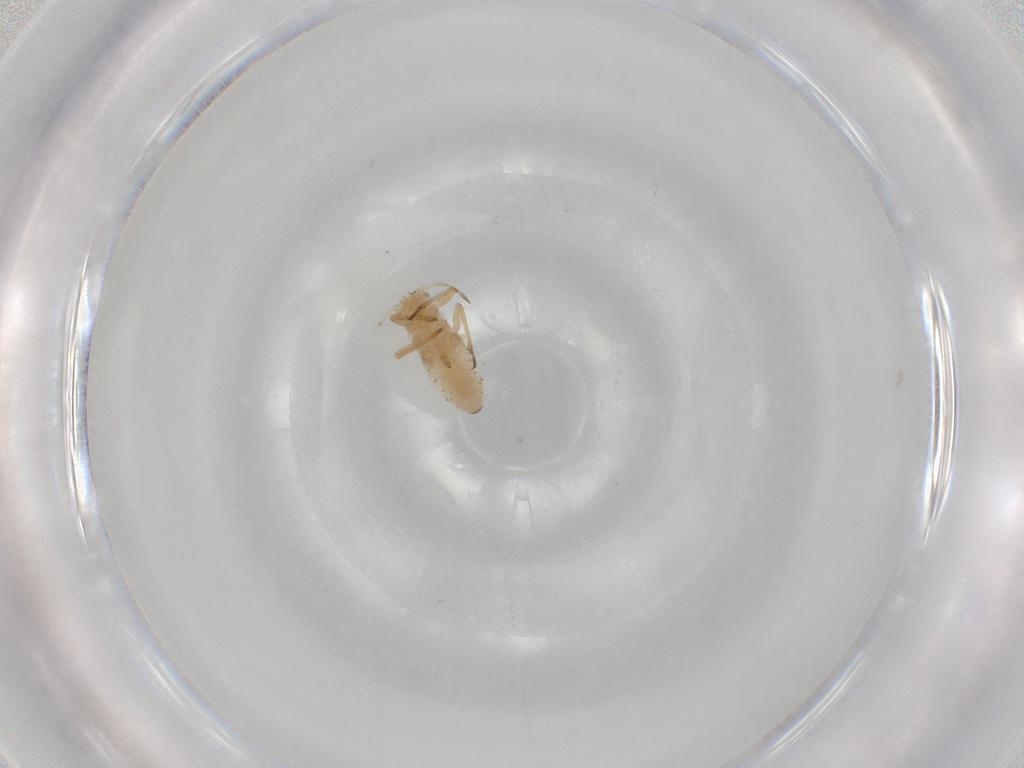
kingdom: Animalia
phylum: Arthropoda
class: Insecta
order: Hemiptera
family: Aphididae
